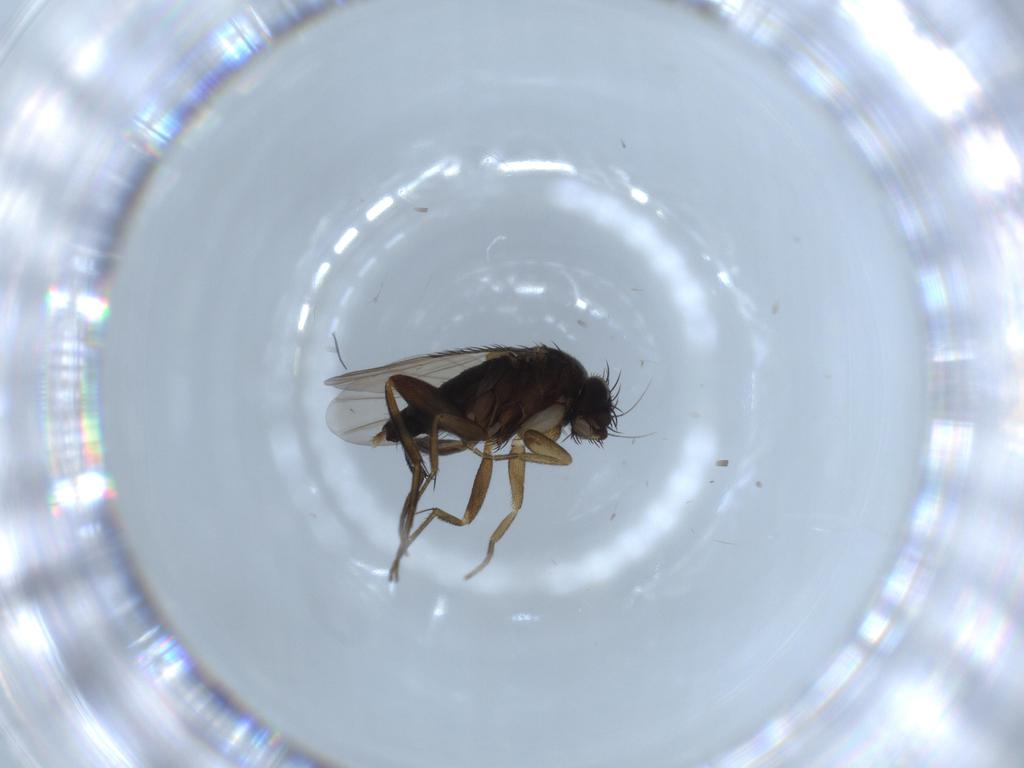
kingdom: Animalia
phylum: Arthropoda
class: Insecta
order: Diptera
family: Phoridae
